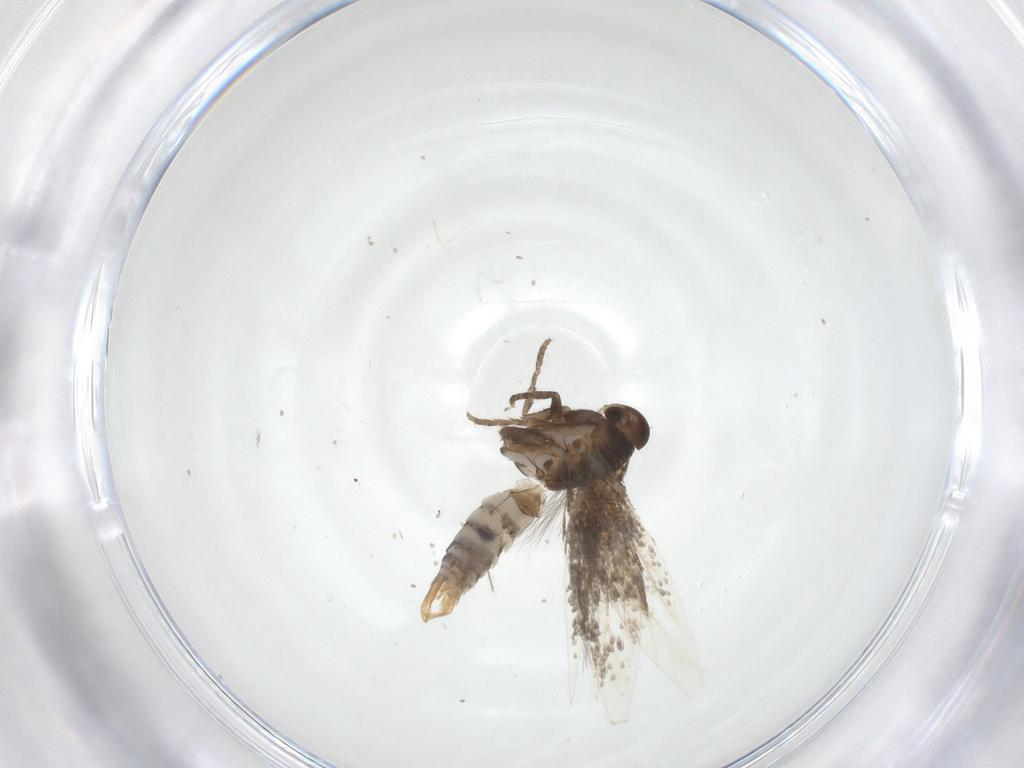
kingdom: Animalia
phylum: Arthropoda
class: Insecta
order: Lepidoptera
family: Elachistidae
